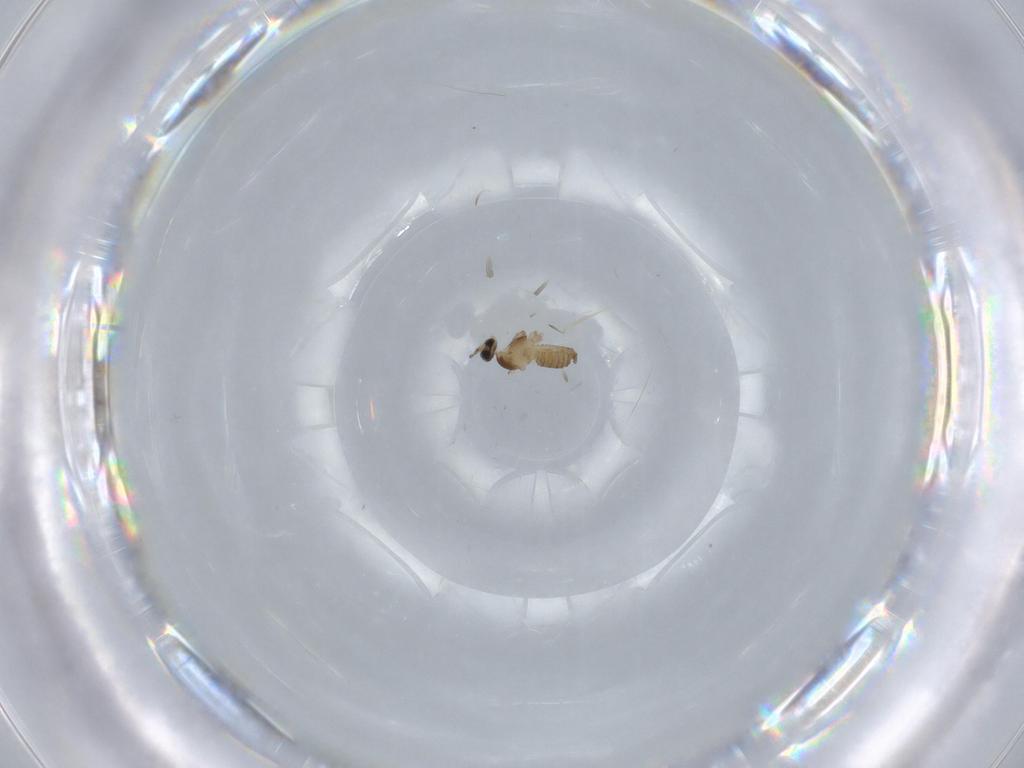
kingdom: Animalia
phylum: Arthropoda
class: Insecta
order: Diptera
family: Cecidomyiidae
